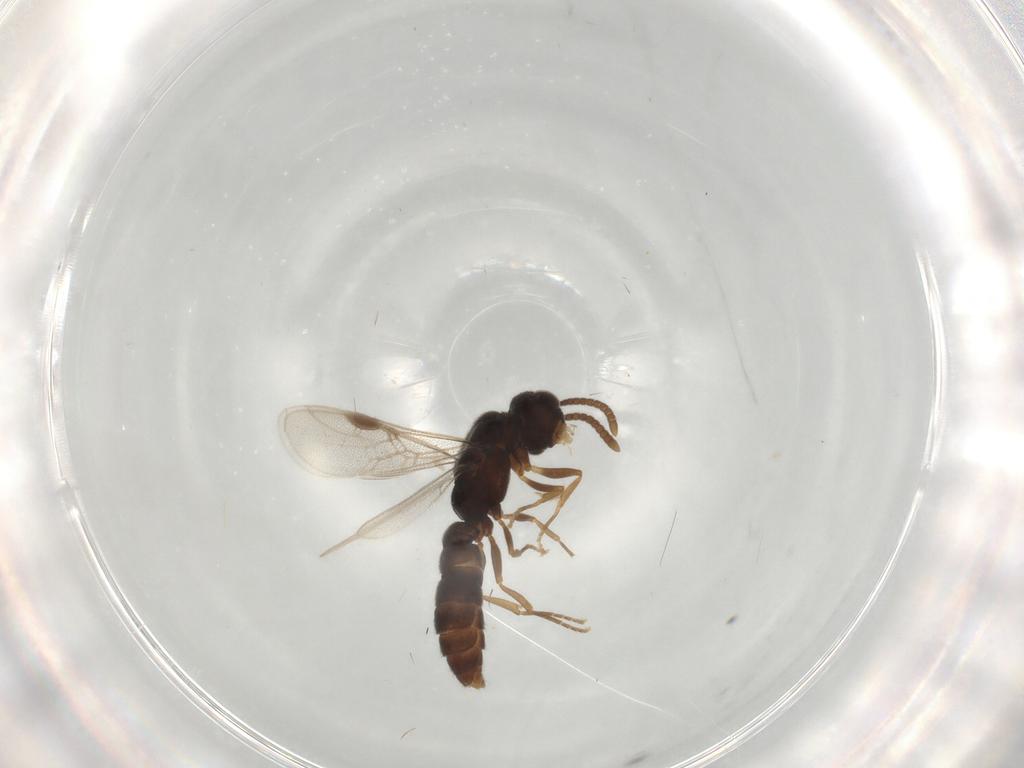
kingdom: Animalia
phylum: Arthropoda
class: Insecta
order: Hymenoptera
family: Formicidae
